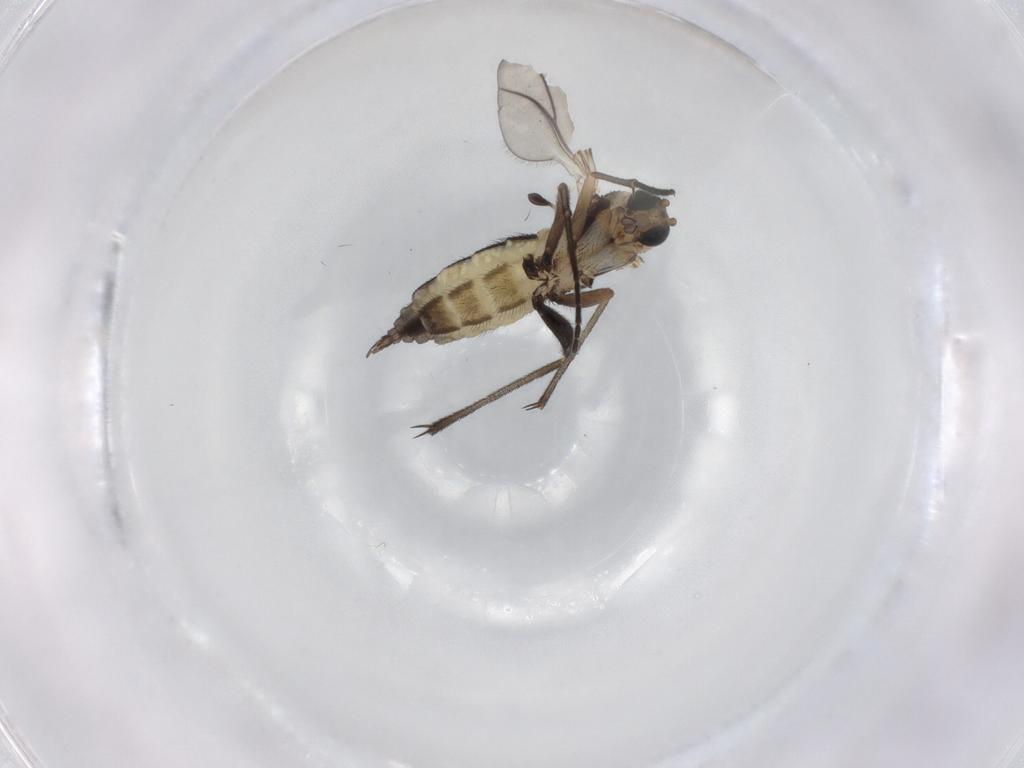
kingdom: Animalia
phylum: Arthropoda
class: Insecta
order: Diptera
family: Sciaridae
